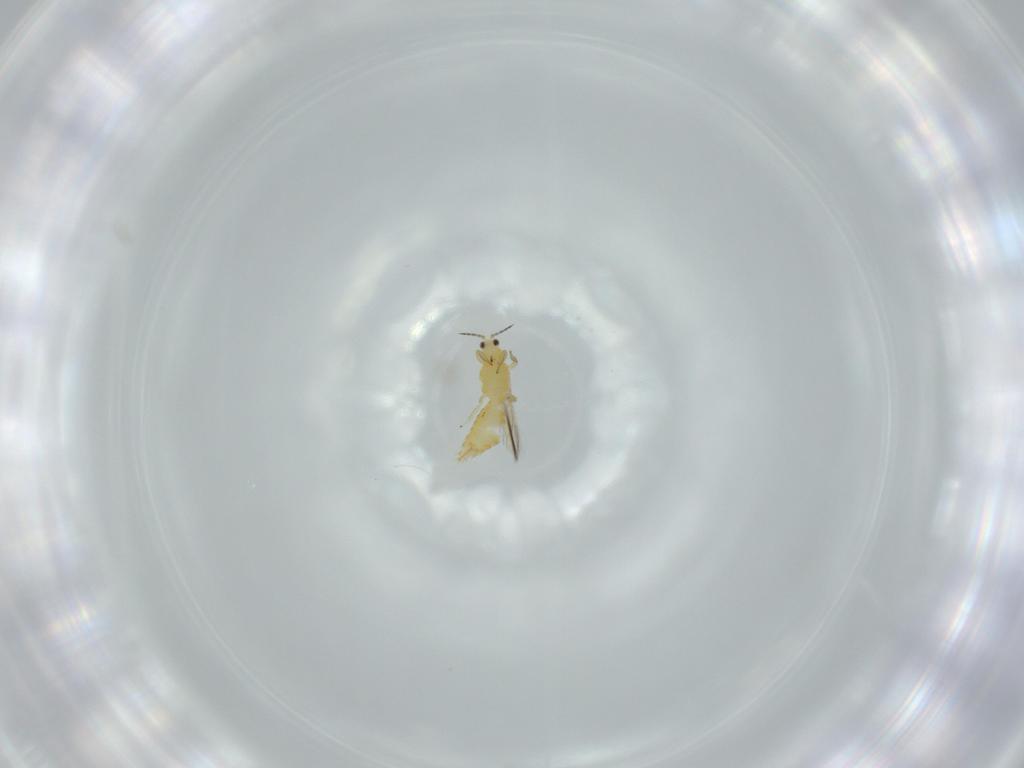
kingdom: Animalia
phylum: Arthropoda
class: Insecta
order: Thysanoptera
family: Thripidae
